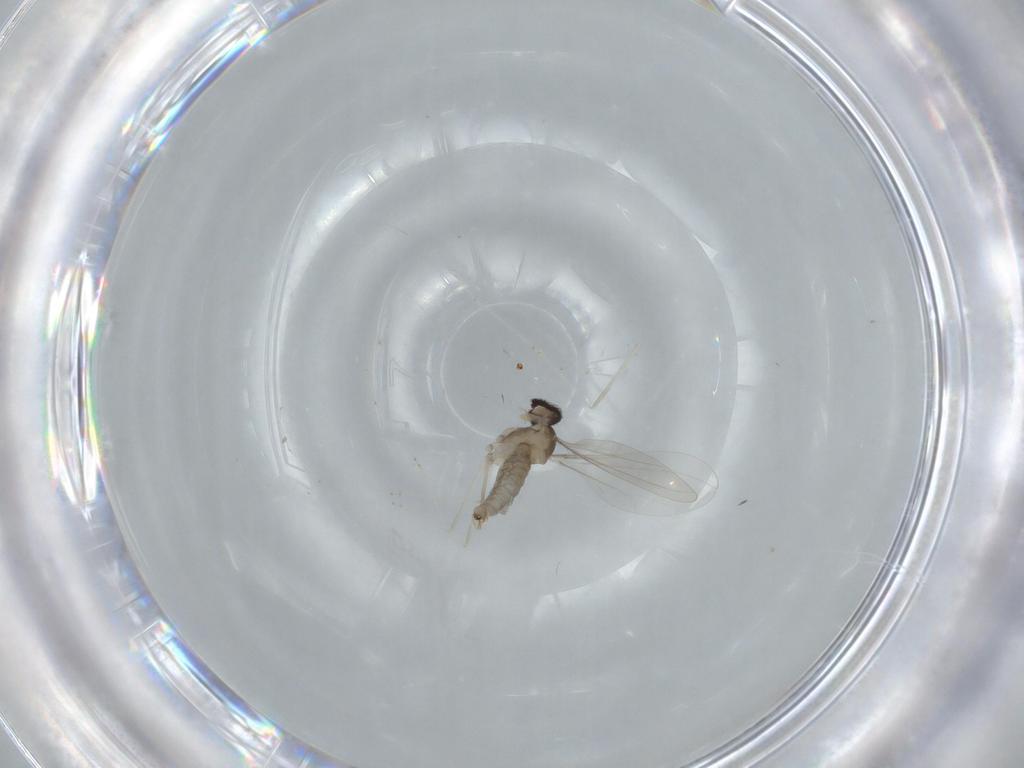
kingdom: Animalia
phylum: Arthropoda
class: Insecta
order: Diptera
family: Cecidomyiidae
